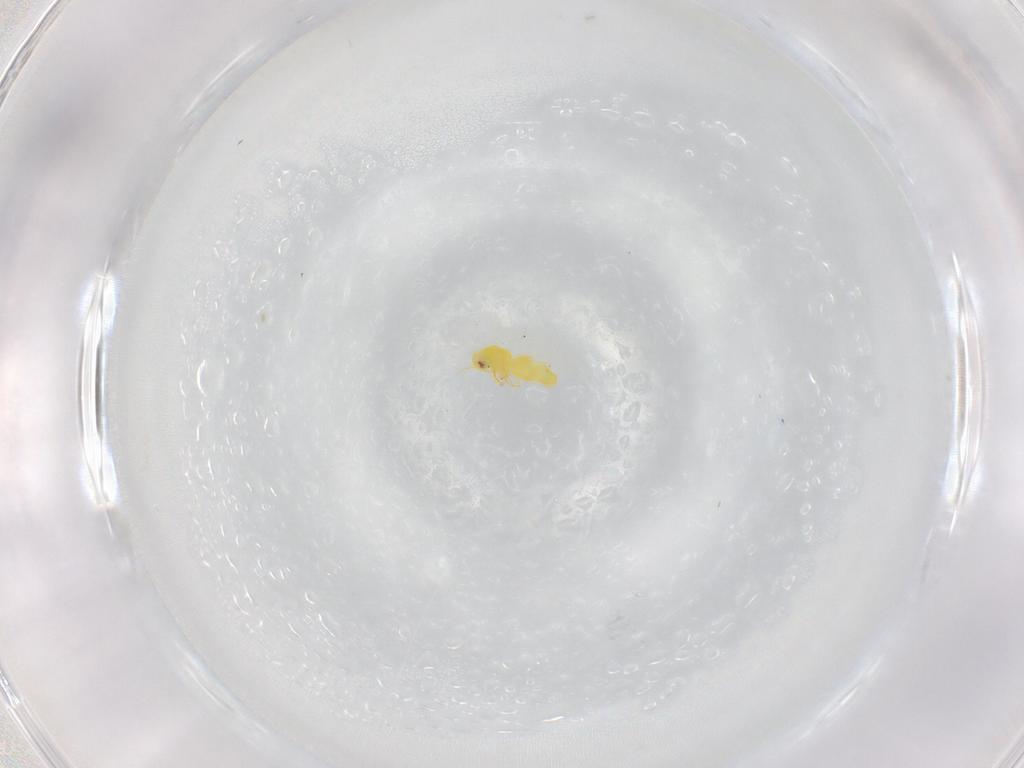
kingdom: Animalia
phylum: Arthropoda
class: Insecta
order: Hemiptera
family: Aleyrodidae
